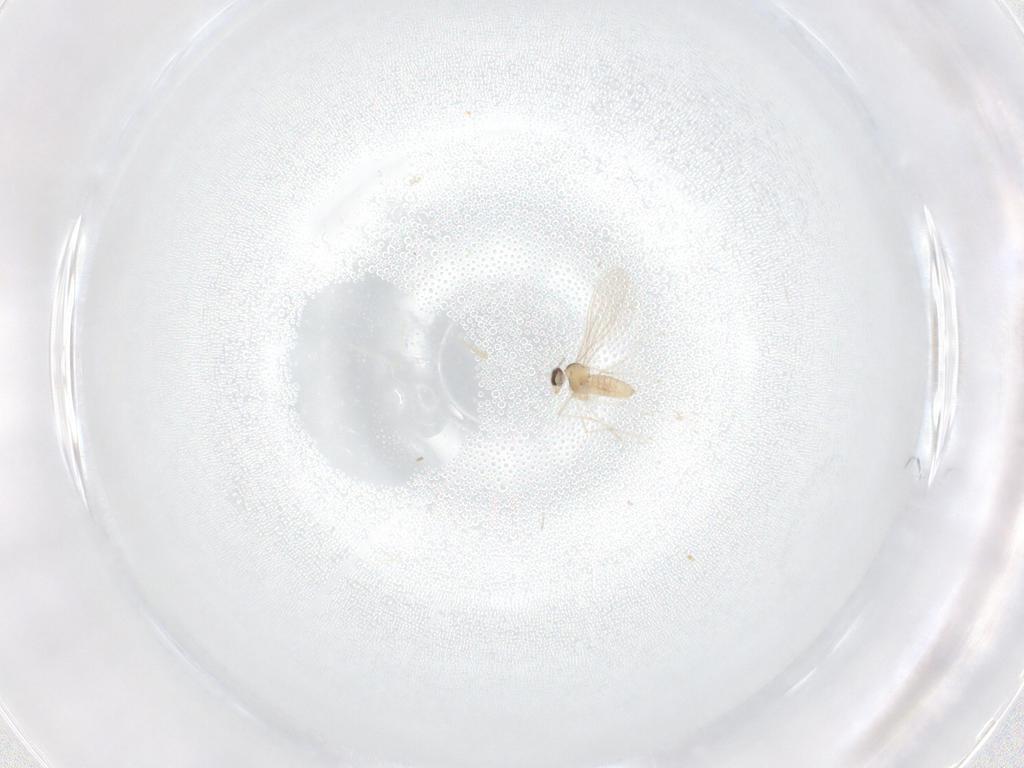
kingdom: Animalia
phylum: Arthropoda
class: Insecta
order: Diptera
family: Cecidomyiidae
